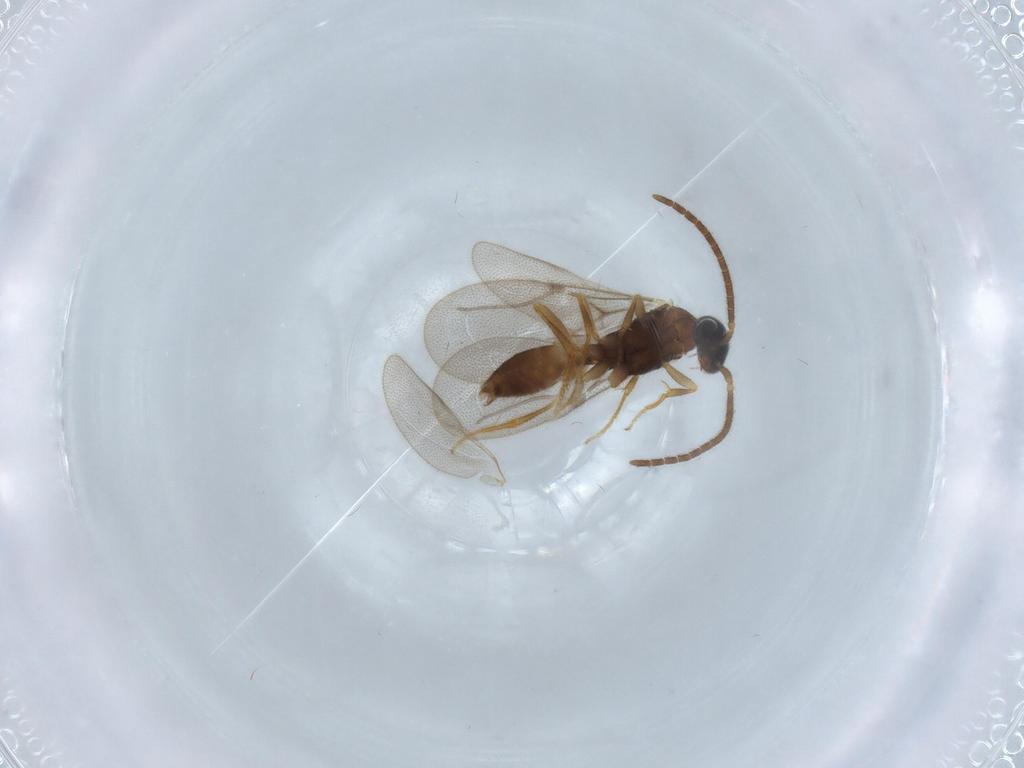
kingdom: Animalia
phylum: Arthropoda
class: Insecta
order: Hymenoptera
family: Bethylidae
